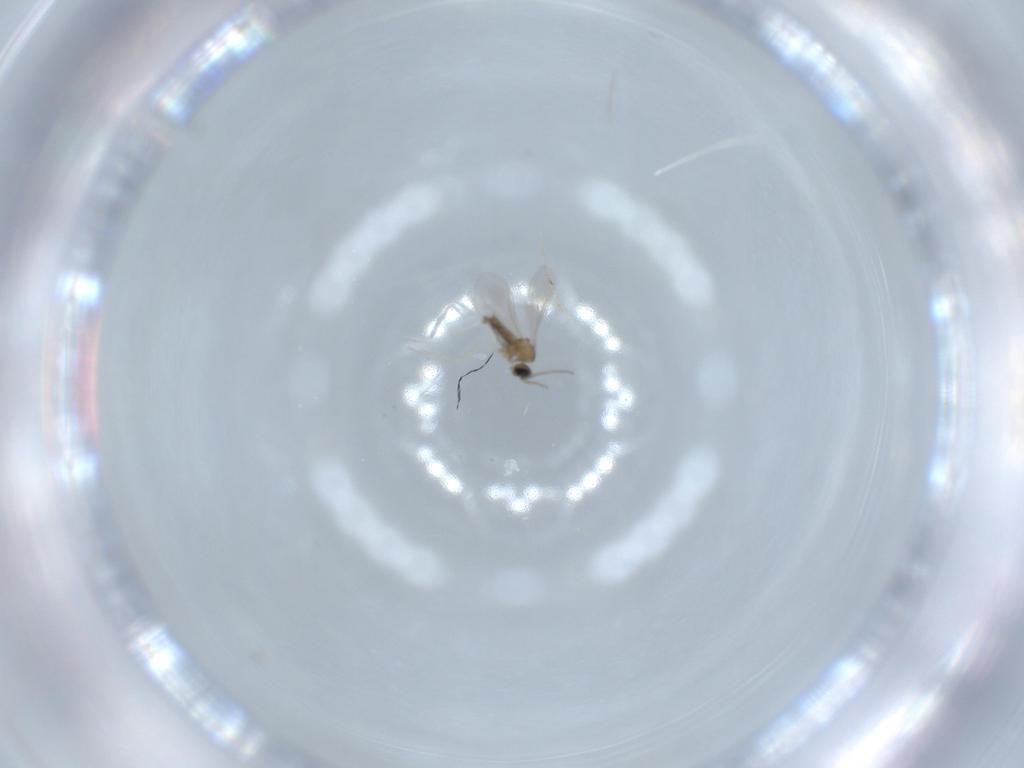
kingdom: Animalia
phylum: Arthropoda
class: Insecta
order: Diptera
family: Cecidomyiidae
